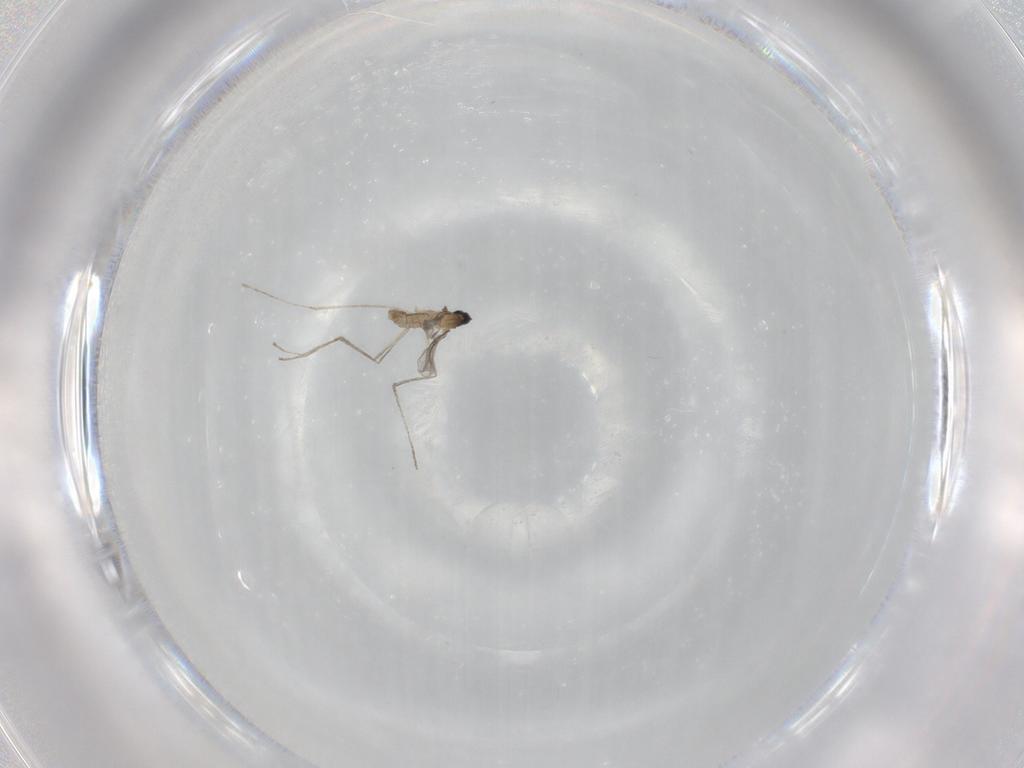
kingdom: Animalia
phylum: Arthropoda
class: Insecta
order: Diptera
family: Cecidomyiidae
